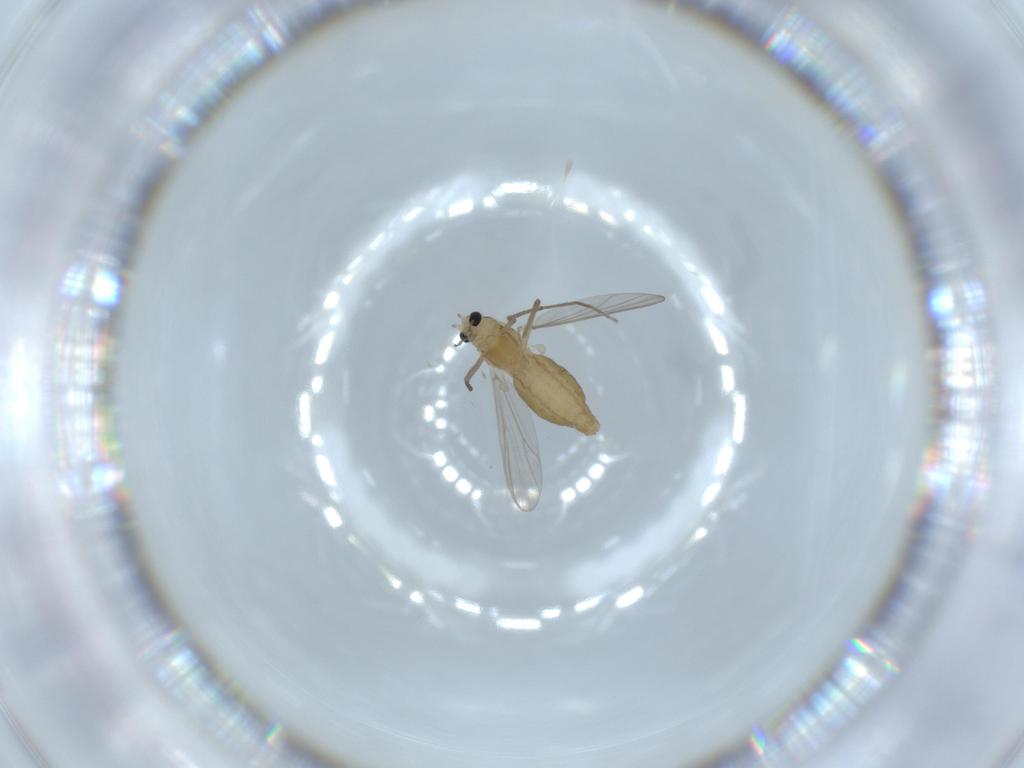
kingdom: Animalia
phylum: Arthropoda
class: Insecta
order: Diptera
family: Chironomidae
